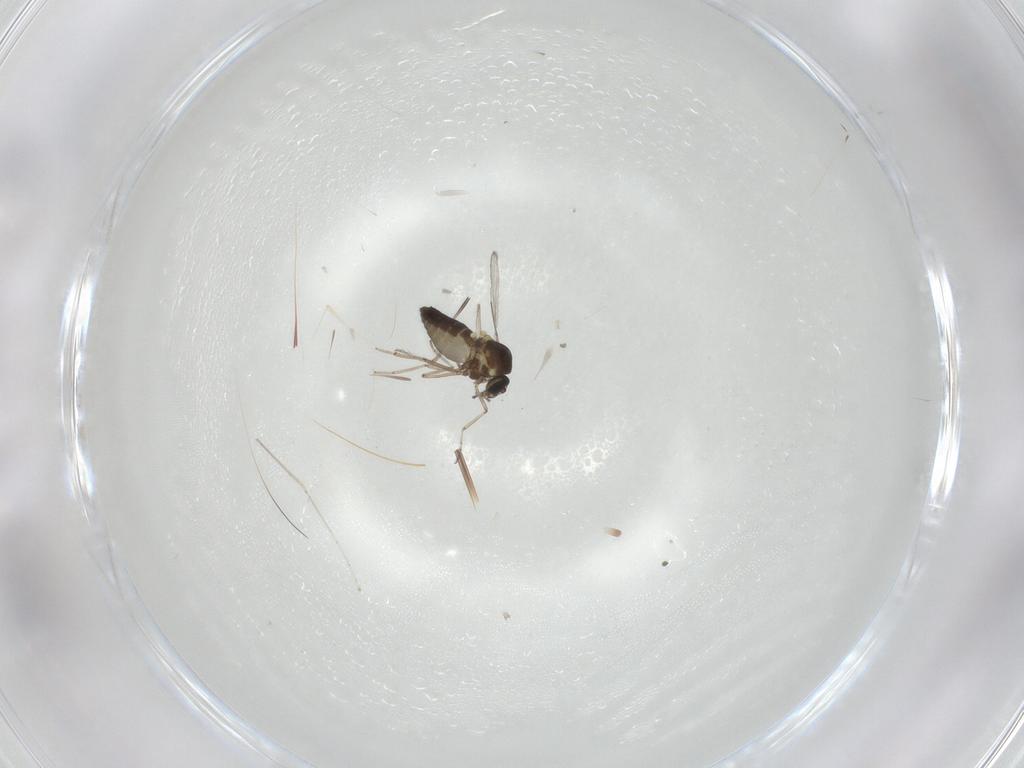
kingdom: Animalia
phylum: Arthropoda
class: Insecta
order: Diptera
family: Ceratopogonidae
